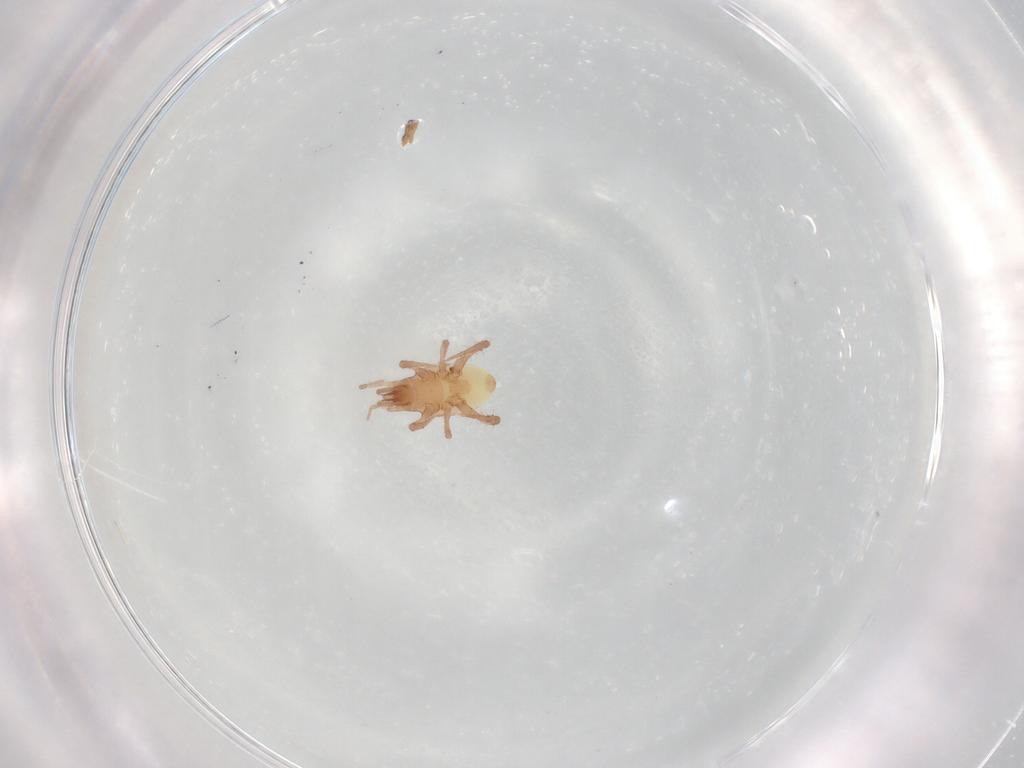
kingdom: Animalia
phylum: Arthropoda
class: Arachnida
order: Mesostigmata
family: Arctacaridae
